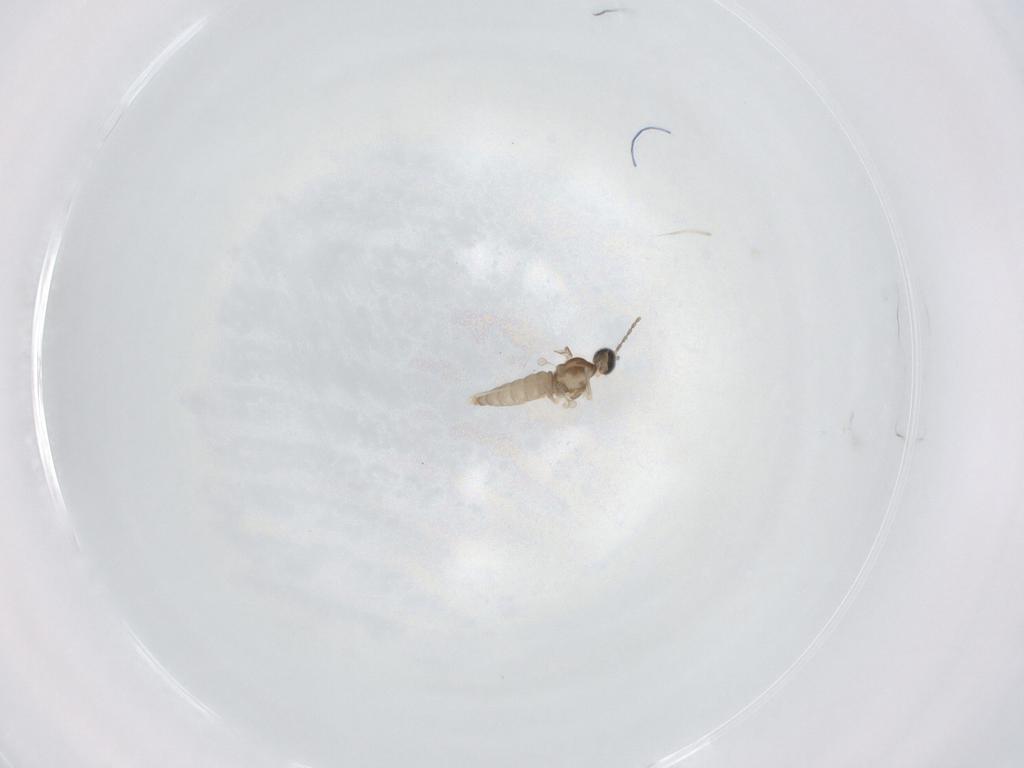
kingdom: Animalia
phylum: Arthropoda
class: Insecta
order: Diptera
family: Cecidomyiidae
